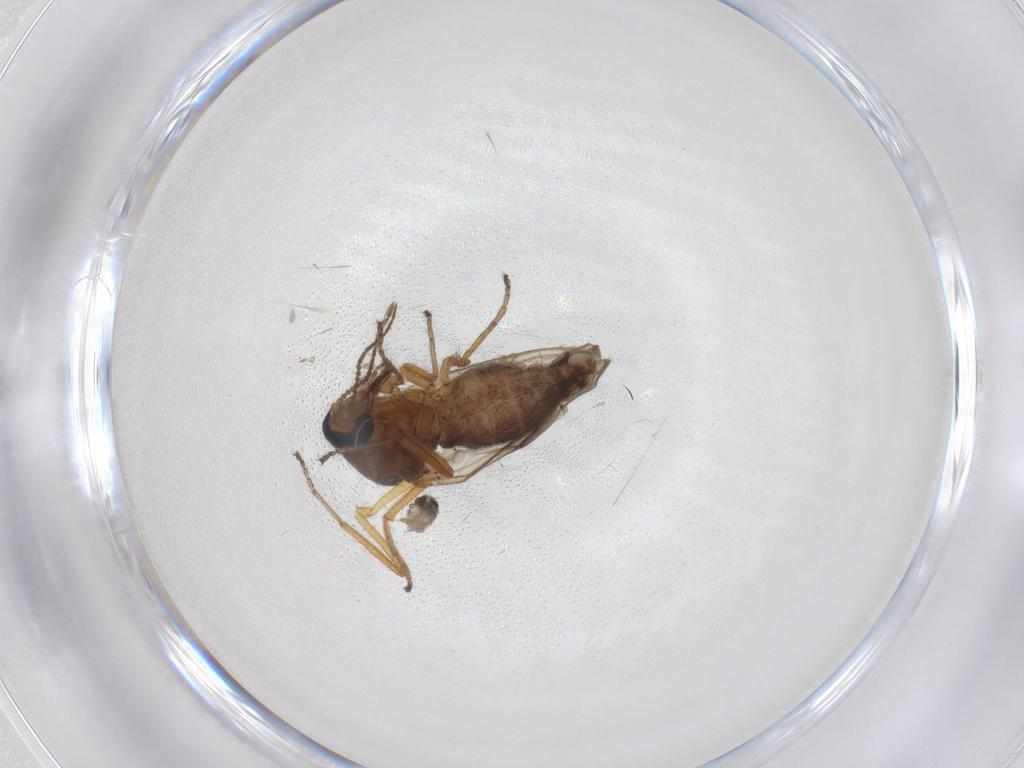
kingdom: Animalia
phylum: Arthropoda
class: Insecta
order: Diptera
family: Ceratopogonidae
